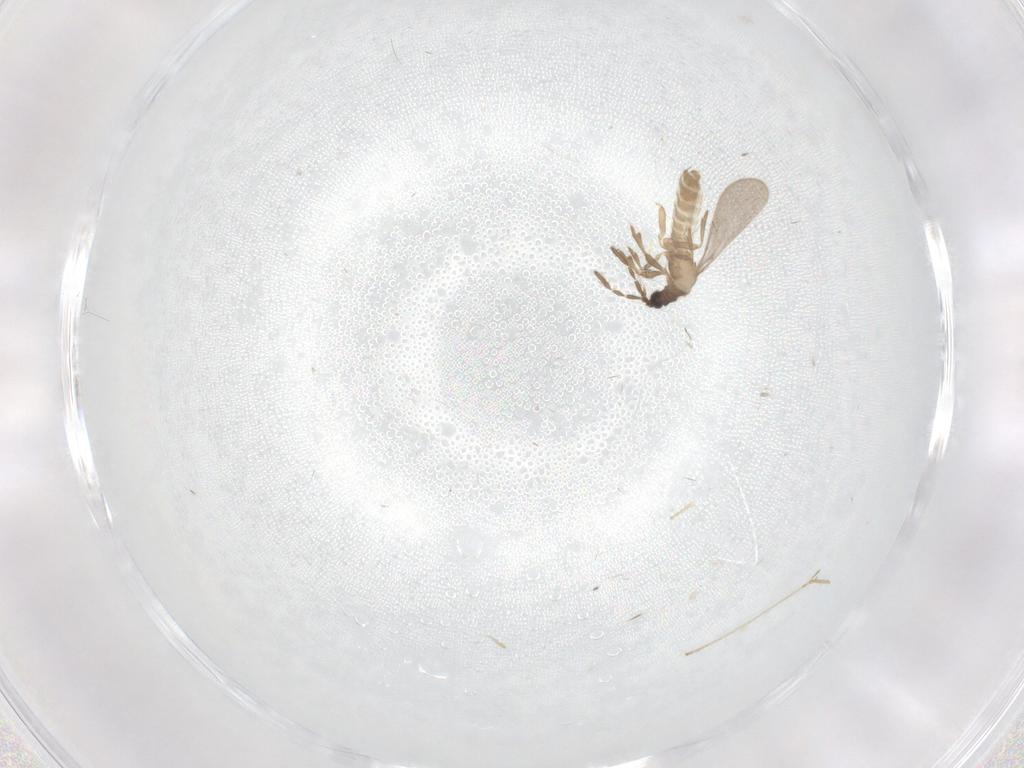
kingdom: Animalia
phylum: Arthropoda
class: Insecta
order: Hemiptera
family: Enicocephalidae
